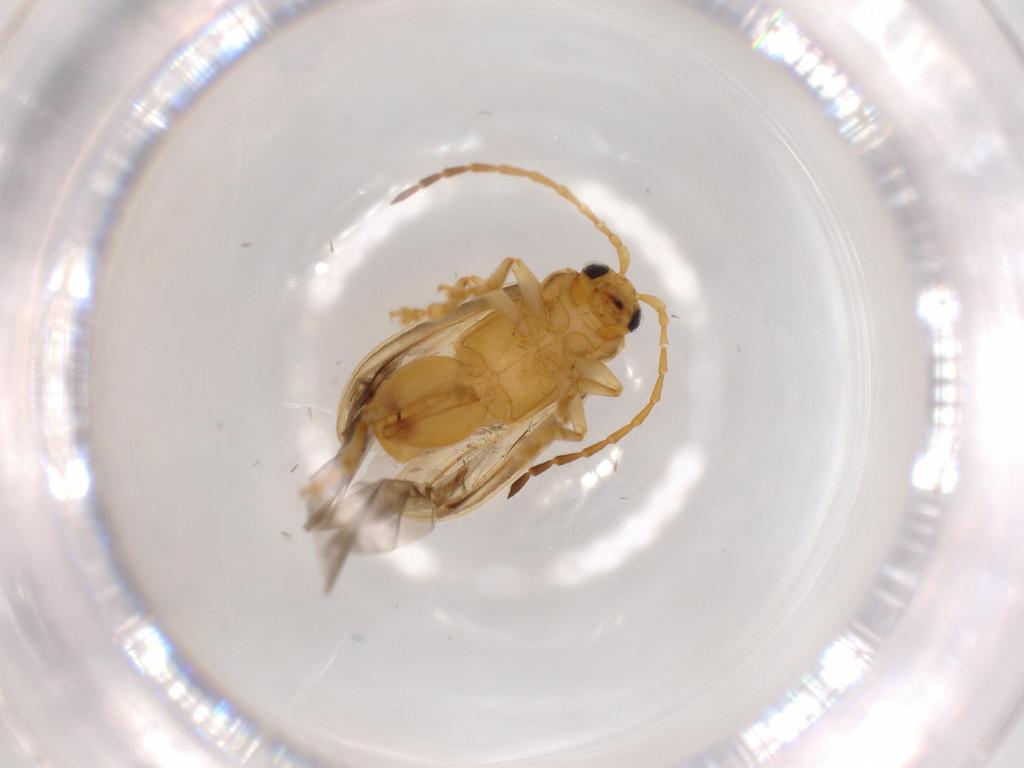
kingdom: Animalia
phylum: Arthropoda
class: Insecta
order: Coleoptera
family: Chrysomelidae
